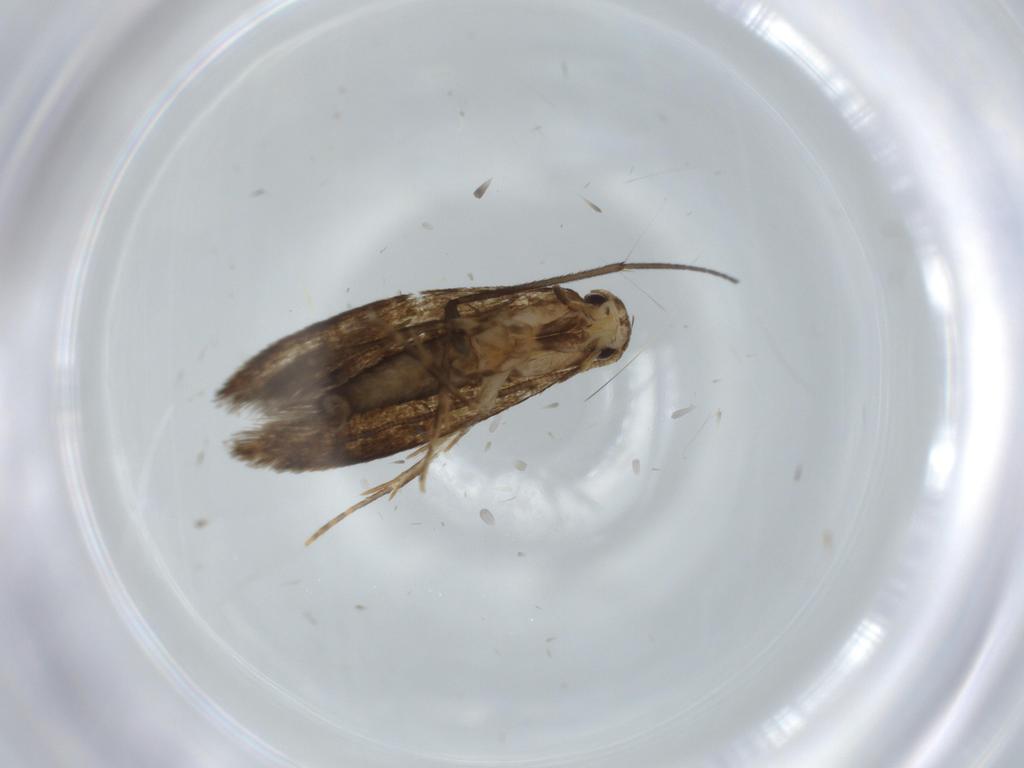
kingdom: Animalia
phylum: Arthropoda
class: Insecta
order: Lepidoptera
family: Tineidae
